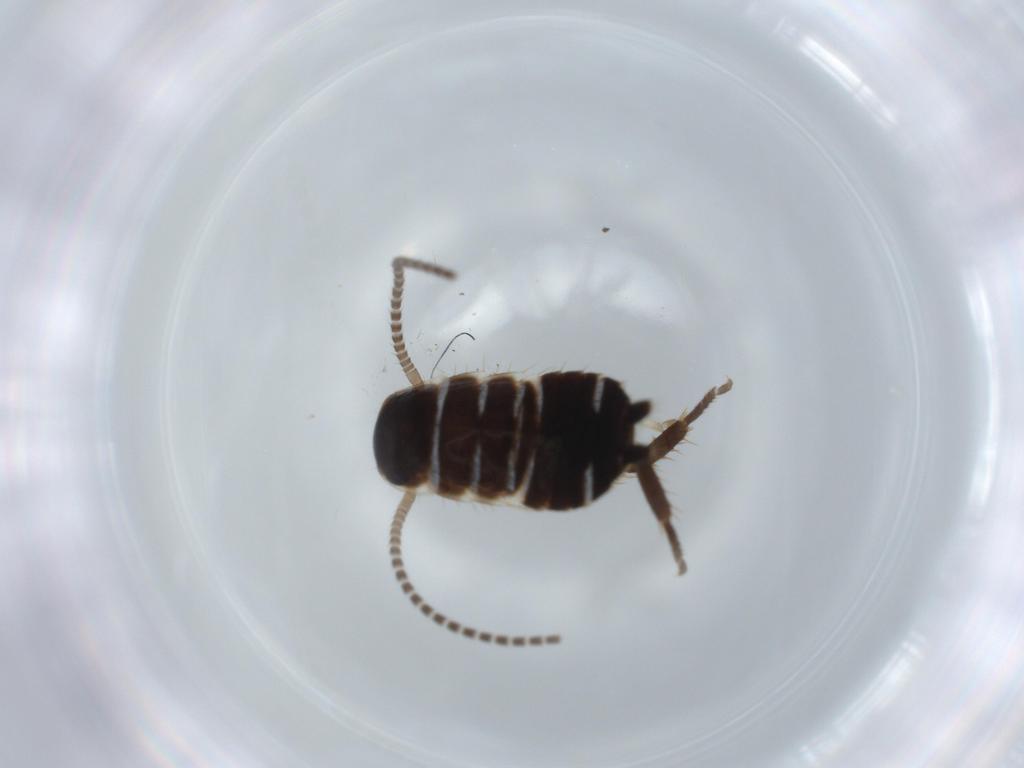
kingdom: Animalia
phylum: Arthropoda
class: Insecta
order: Blattodea
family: Ectobiidae
